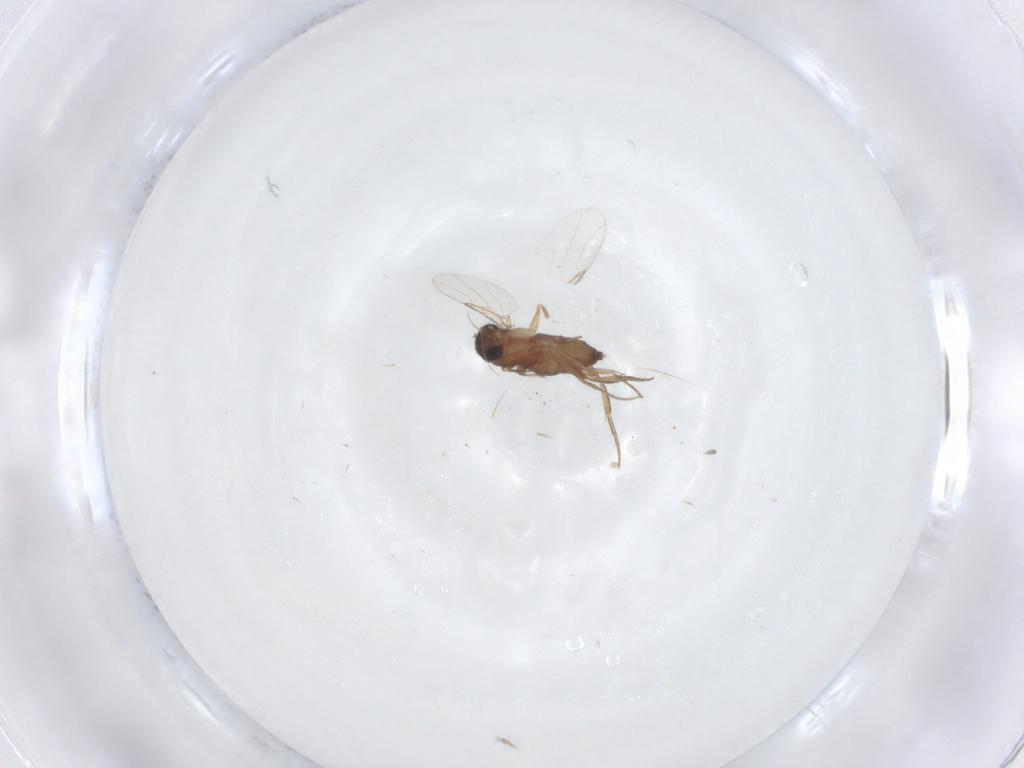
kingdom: Animalia
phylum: Arthropoda
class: Insecta
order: Diptera
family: Phoridae
